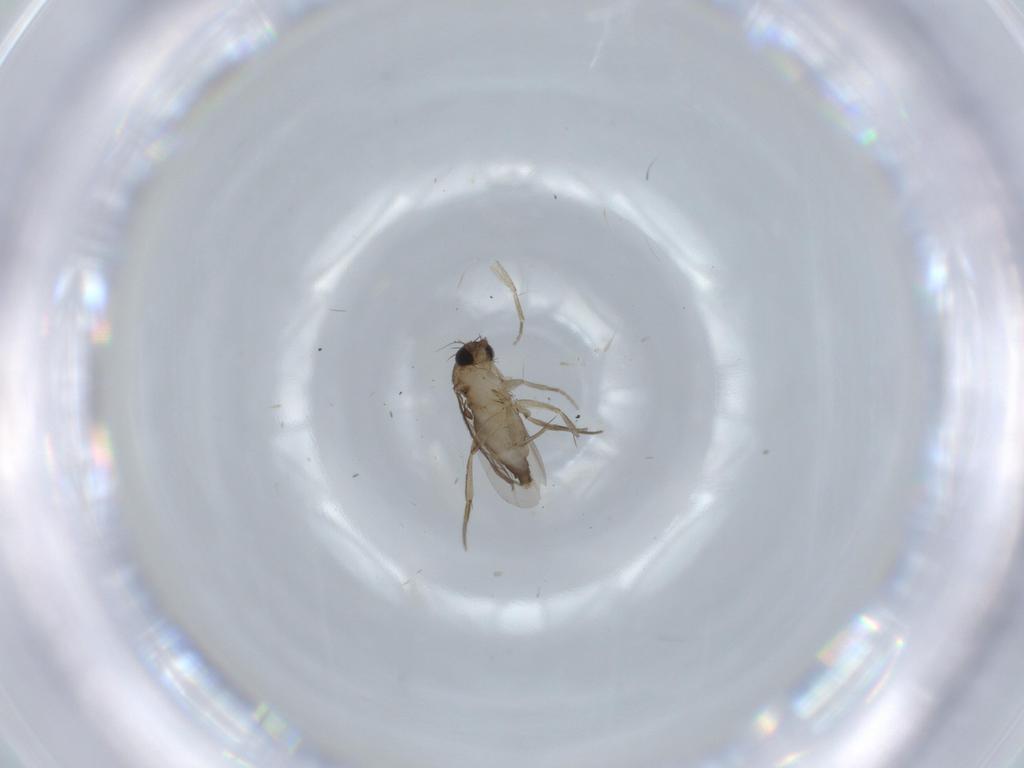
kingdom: Animalia
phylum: Arthropoda
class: Insecta
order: Diptera
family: Phoridae
